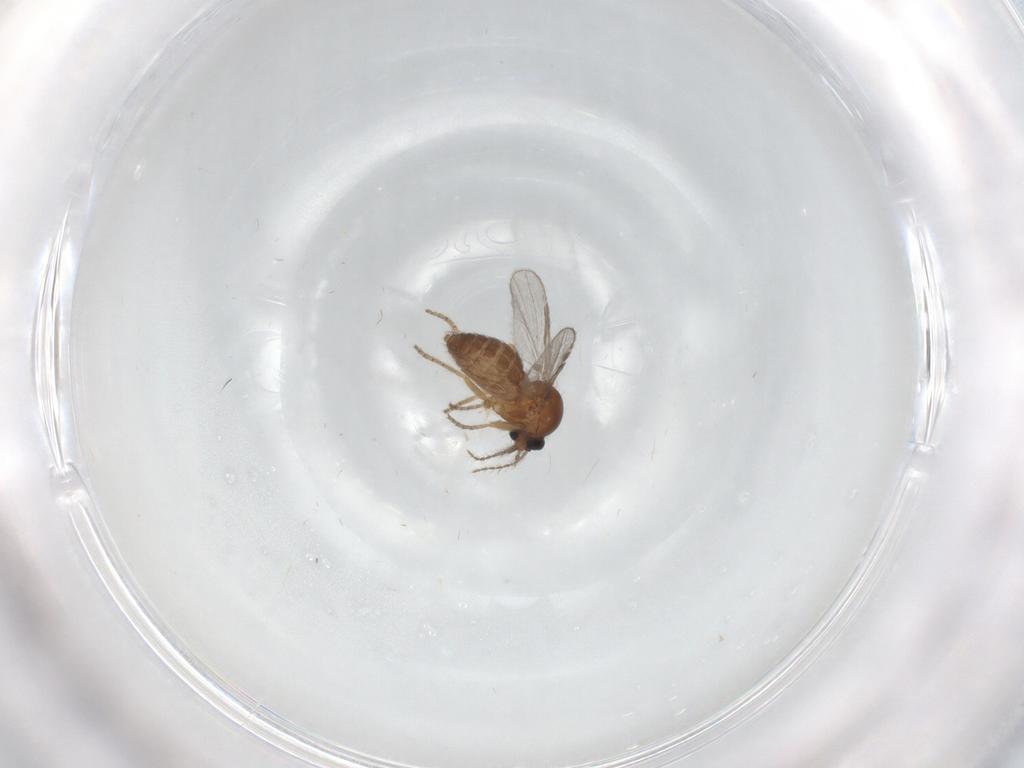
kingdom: Animalia
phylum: Arthropoda
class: Insecta
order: Diptera
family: Ceratopogonidae
